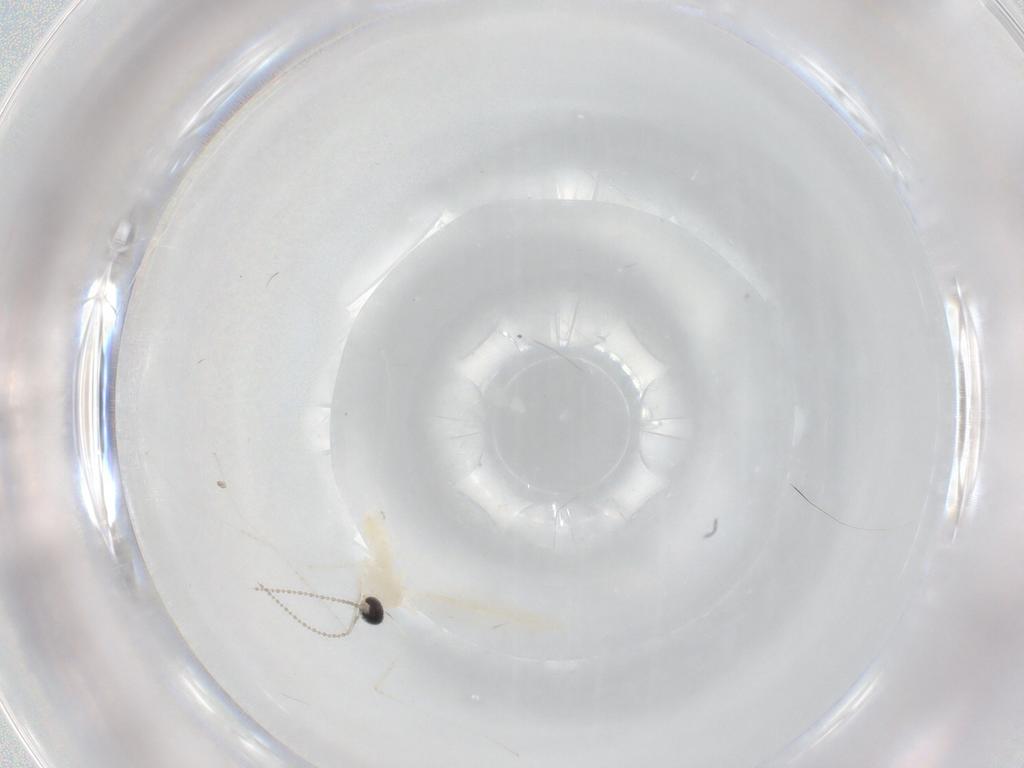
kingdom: Animalia
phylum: Arthropoda
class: Insecta
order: Diptera
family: Cecidomyiidae
